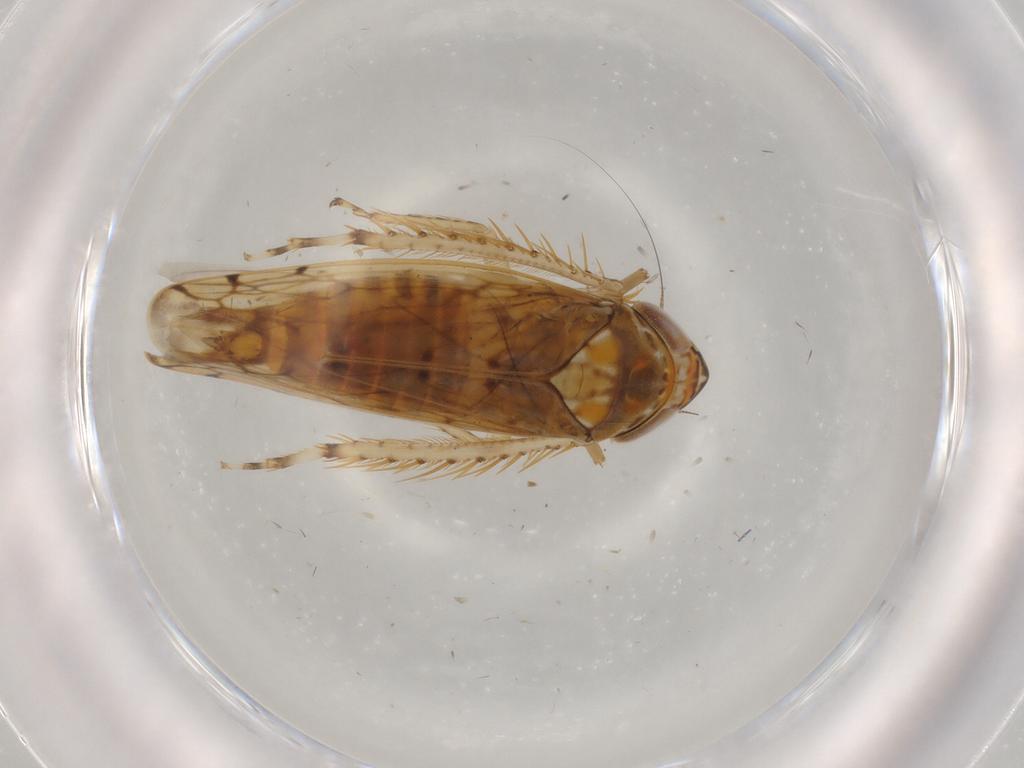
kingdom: Animalia
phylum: Arthropoda
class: Insecta
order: Hemiptera
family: Cicadellidae
